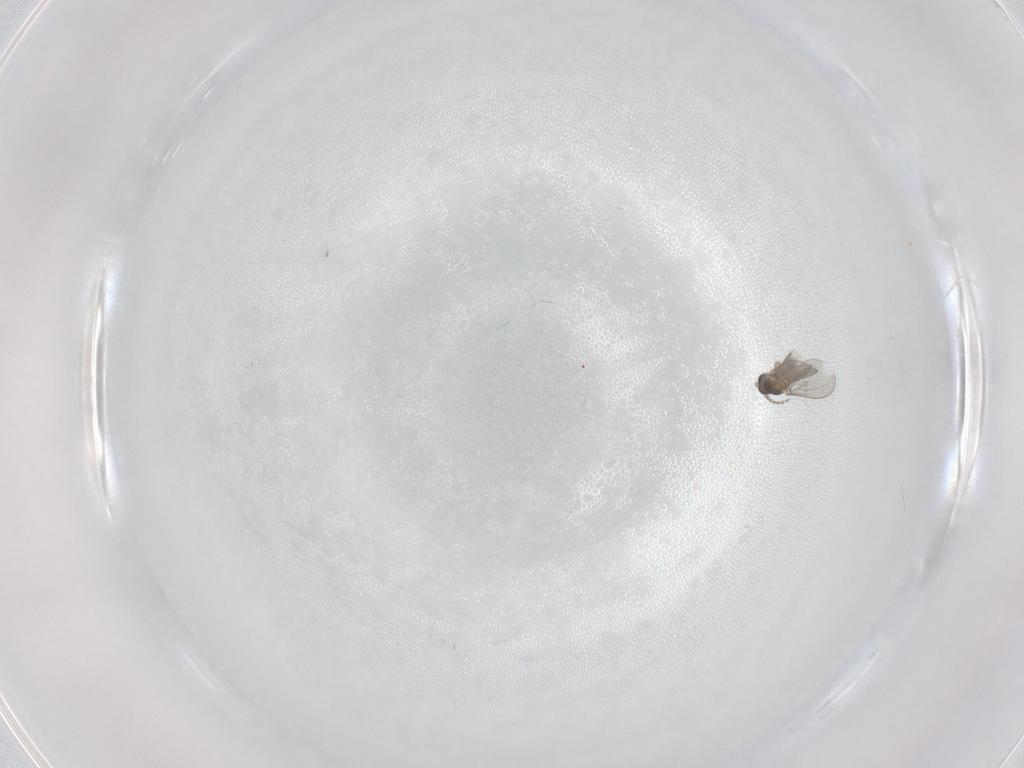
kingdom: Animalia
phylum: Arthropoda
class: Insecta
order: Diptera
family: Cecidomyiidae
